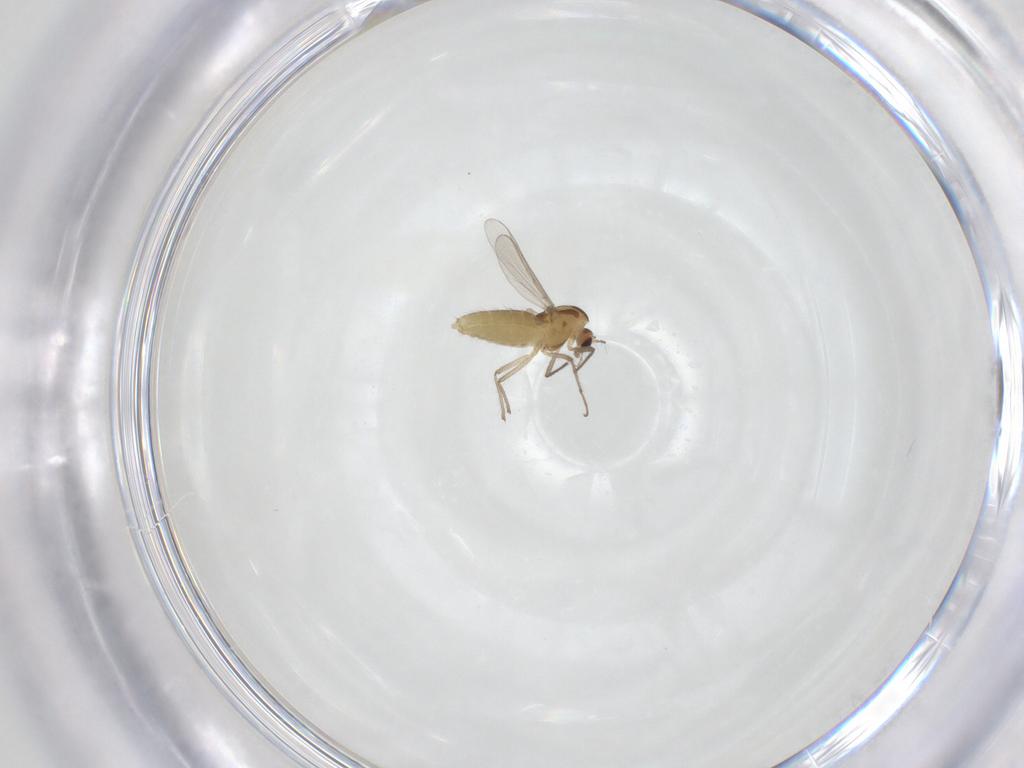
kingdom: Animalia
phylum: Arthropoda
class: Insecta
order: Diptera
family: Chironomidae
